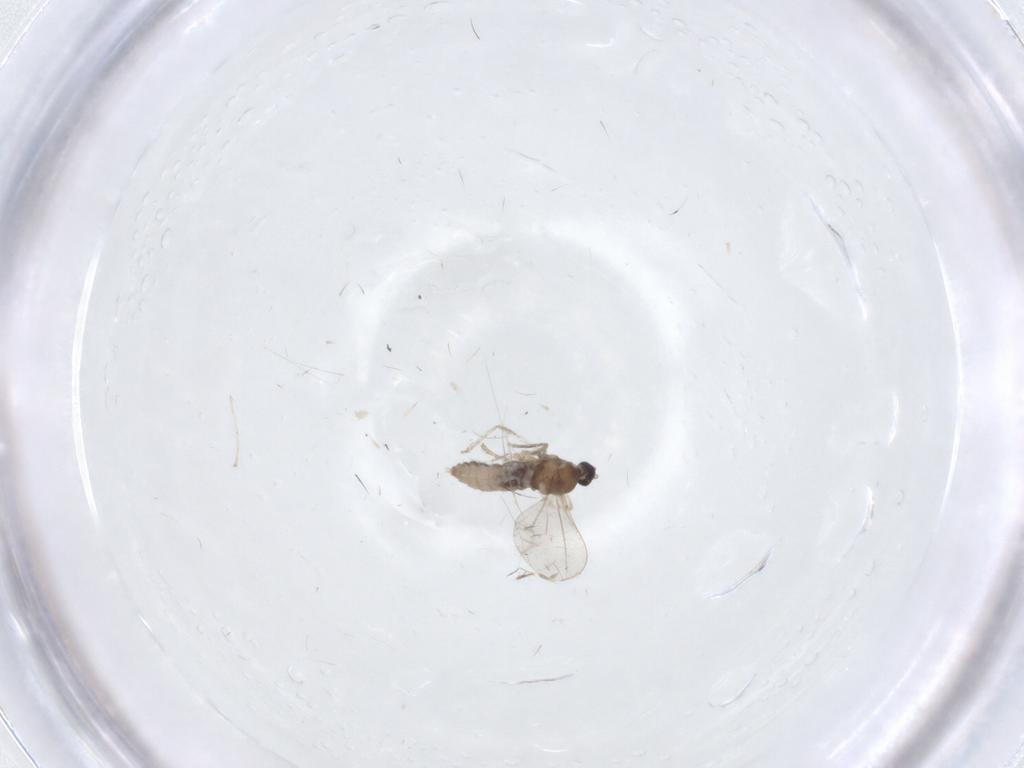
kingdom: Animalia
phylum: Arthropoda
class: Insecta
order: Diptera
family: Cecidomyiidae
